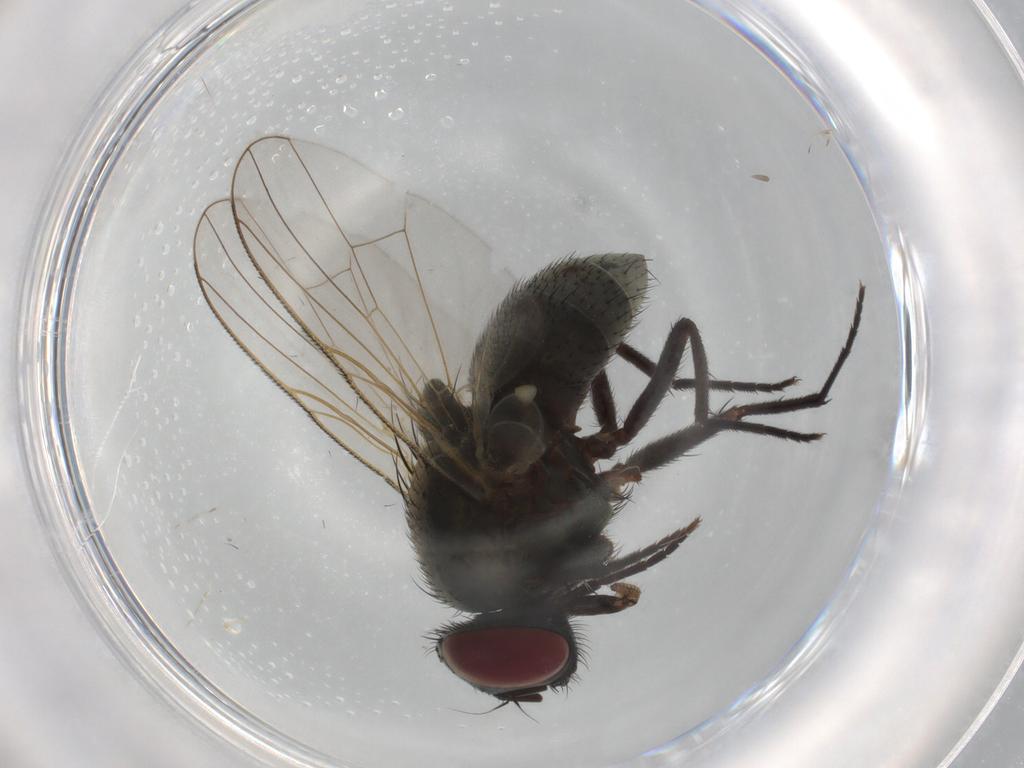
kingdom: Animalia
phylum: Arthropoda
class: Insecta
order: Diptera
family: Muscidae
